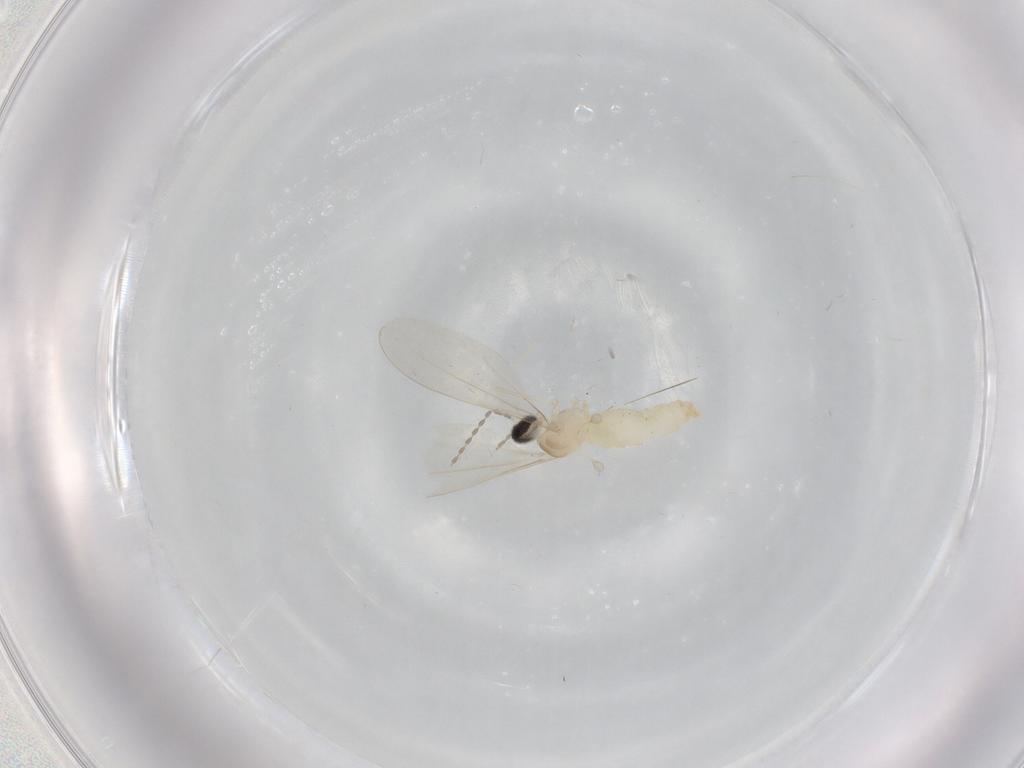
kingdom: Animalia
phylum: Arthropoda
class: Insecta
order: Diptera
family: Cecidomyiidae
